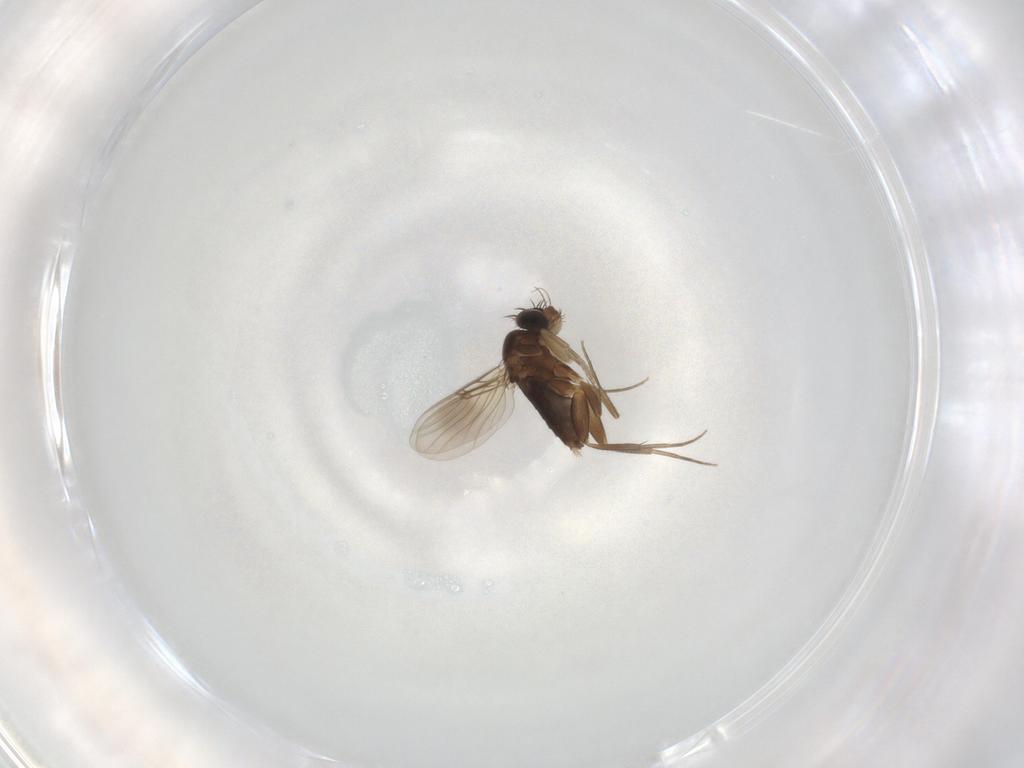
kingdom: Animalia
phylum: Arthropoda
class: Insecta
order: Diptera
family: Phoridae
